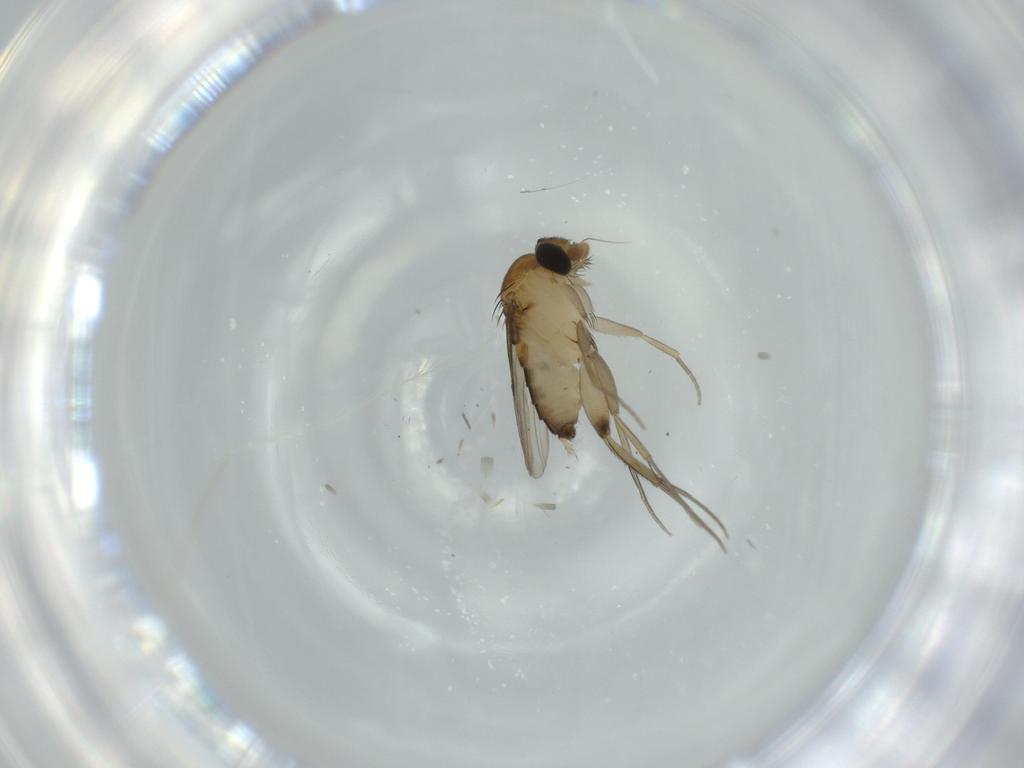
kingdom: Animalia
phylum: Arthropoda
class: Insecta
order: Diptera
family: Phoridae
